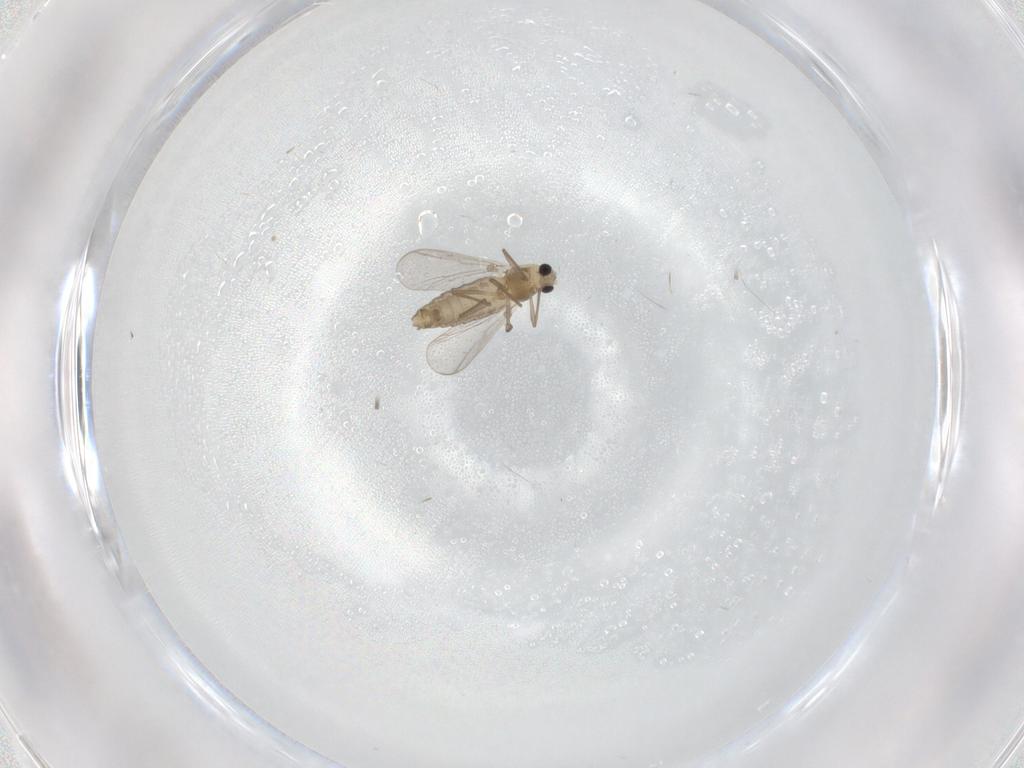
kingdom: Animalia
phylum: Arthropoda
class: Insecta
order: Diptera
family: Chironomidae
